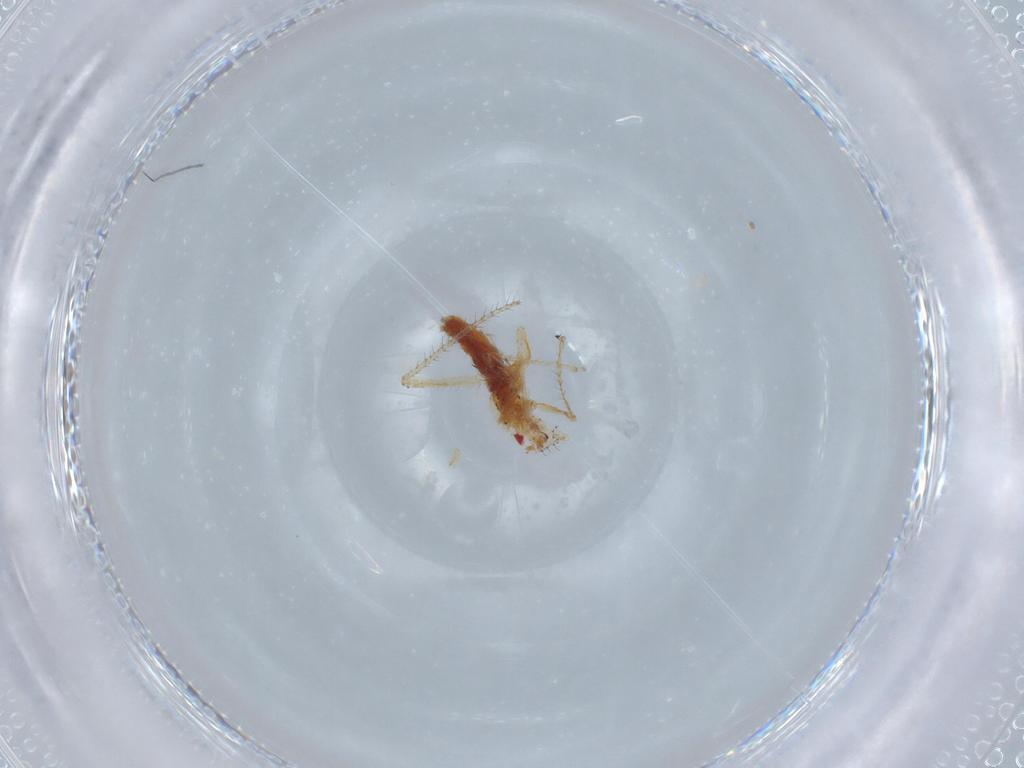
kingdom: Animalia
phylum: Arthropoda
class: Insecta
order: Hemiptera
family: Aphididae
